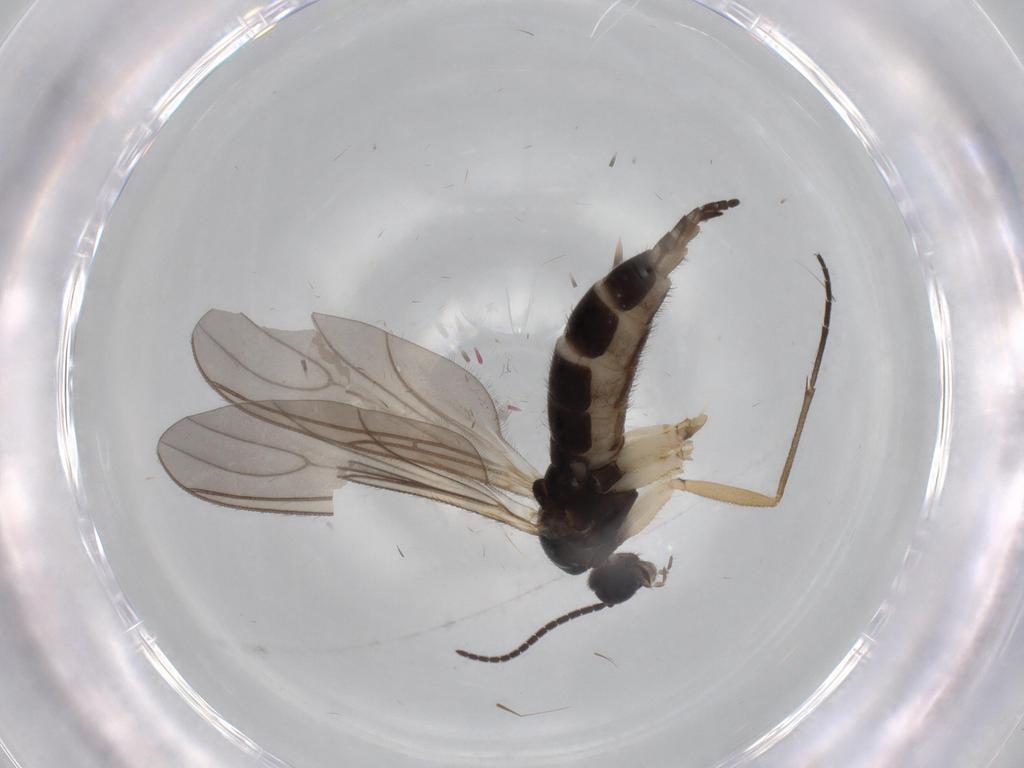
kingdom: Animalia
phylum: Arthropoda
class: Insecta
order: Diptera
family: Sciaridae
